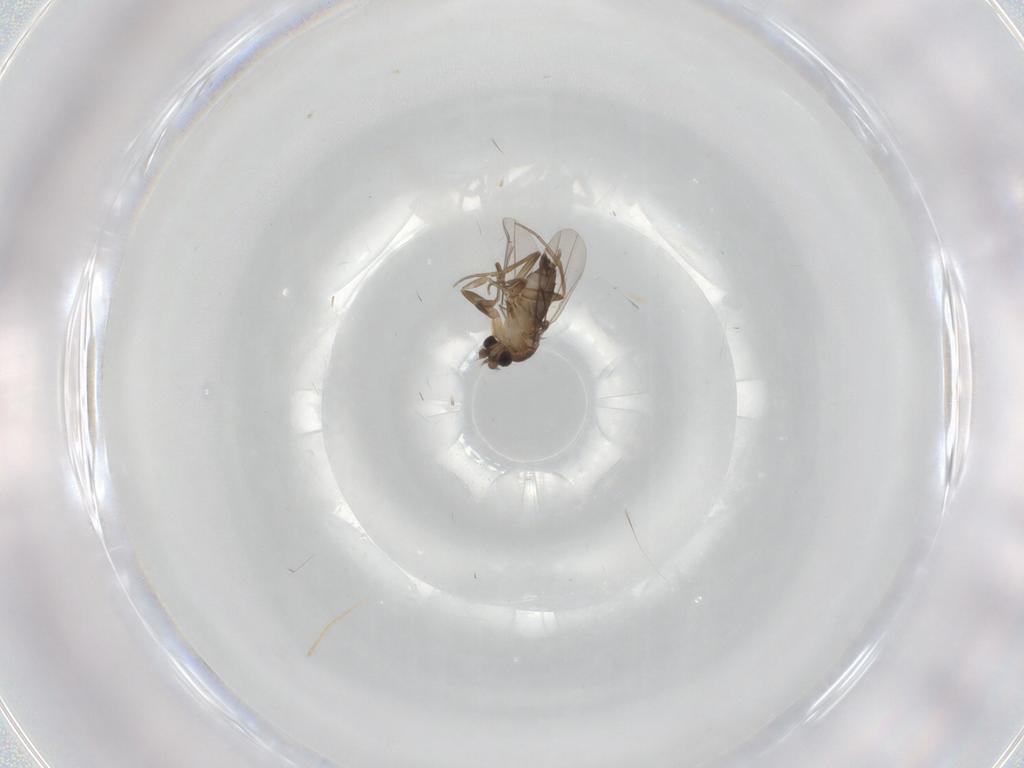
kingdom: Animalia
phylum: Arthropoda
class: Insecta
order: Diptera
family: Phoridae
